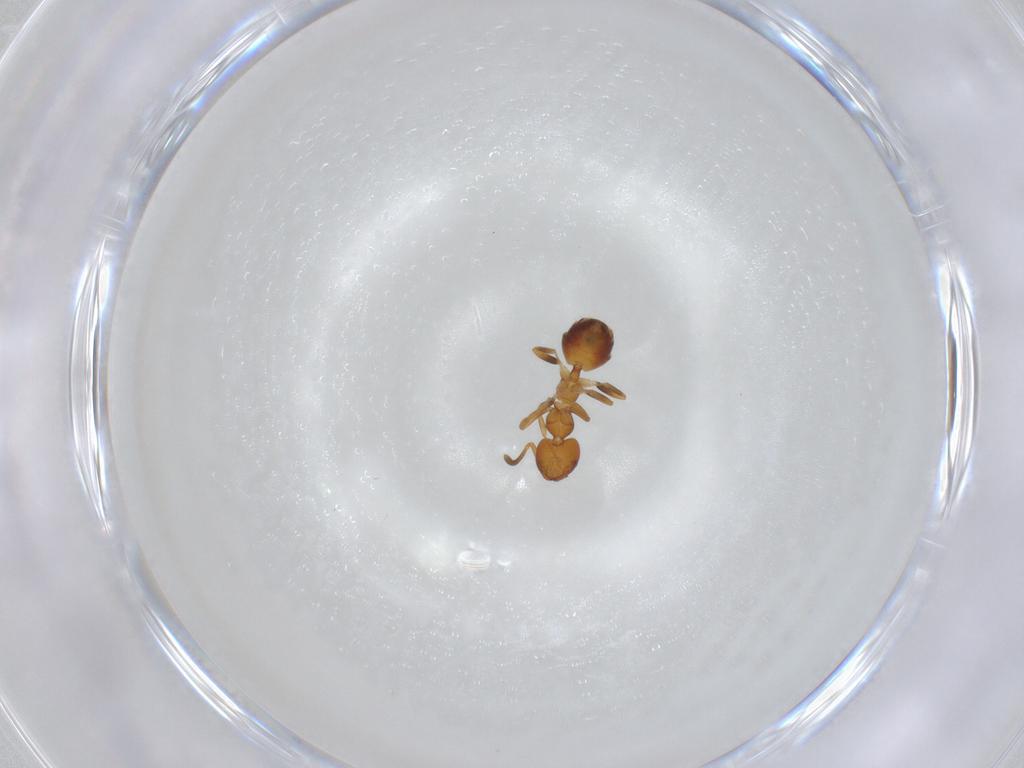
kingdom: Animalia
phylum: Arthropoda
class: Insecta
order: Hymenoptera
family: Formicidae
